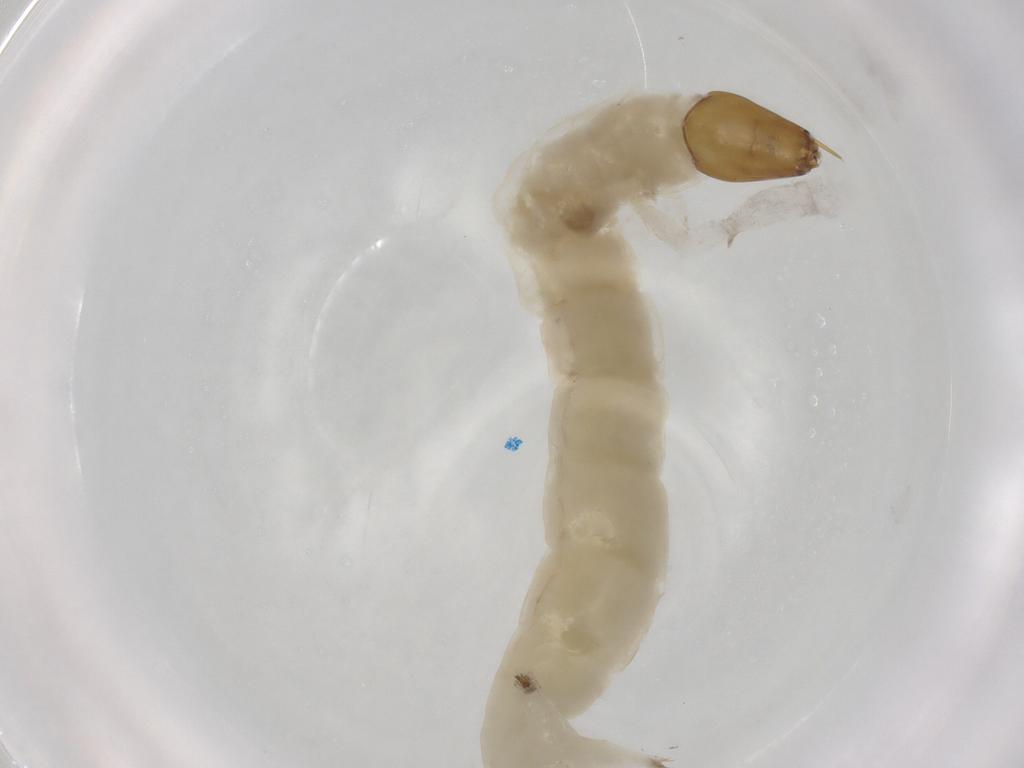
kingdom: Animalia
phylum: Arthropoda
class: Insecta
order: Diptera
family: Chironomidae
